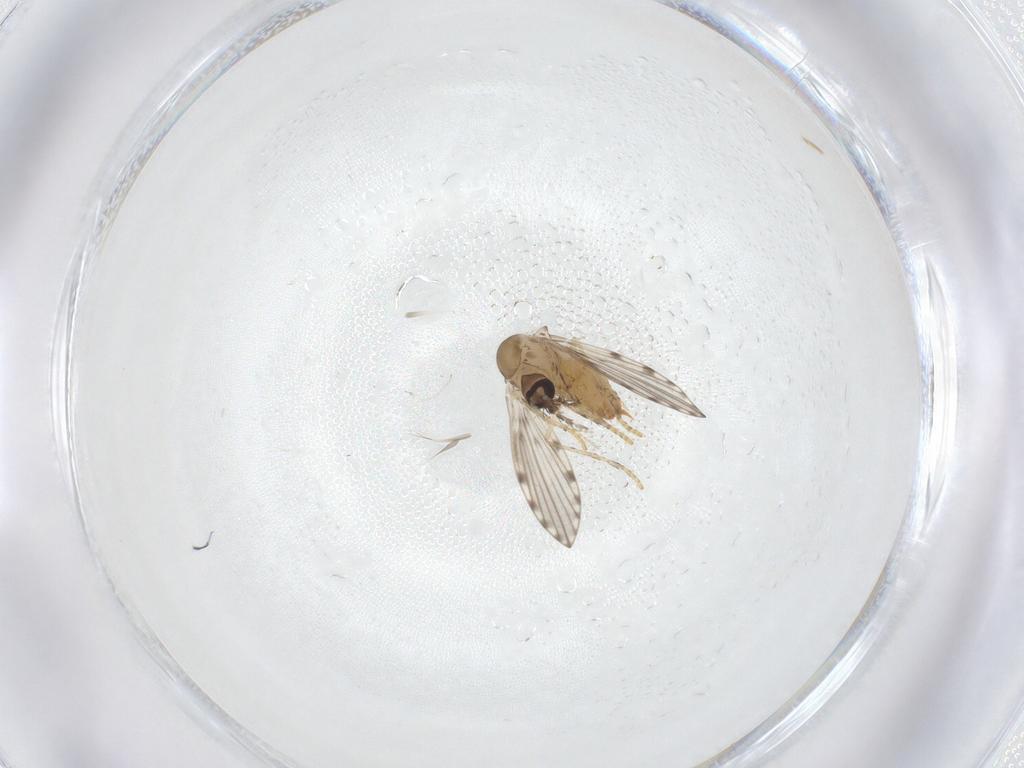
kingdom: Animalia
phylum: Arthropoda
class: Insecta
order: Diptera
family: Psychodidae
